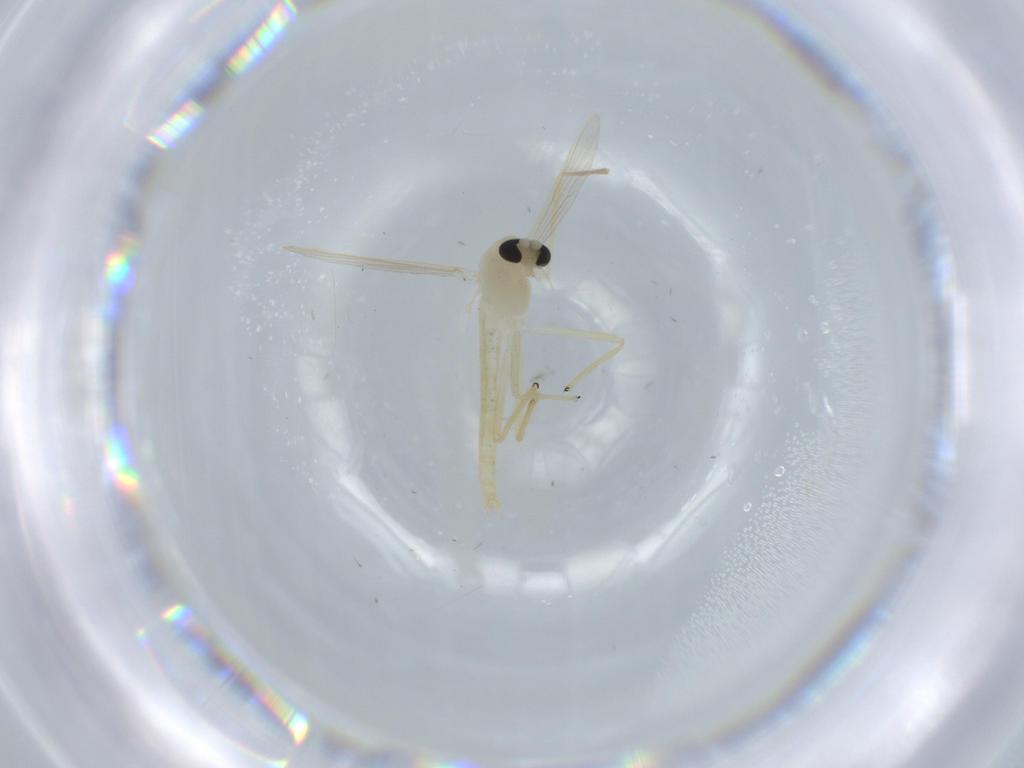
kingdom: Animalia
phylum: Arthropoda
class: Insecta
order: Diptera
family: Chironomidae
